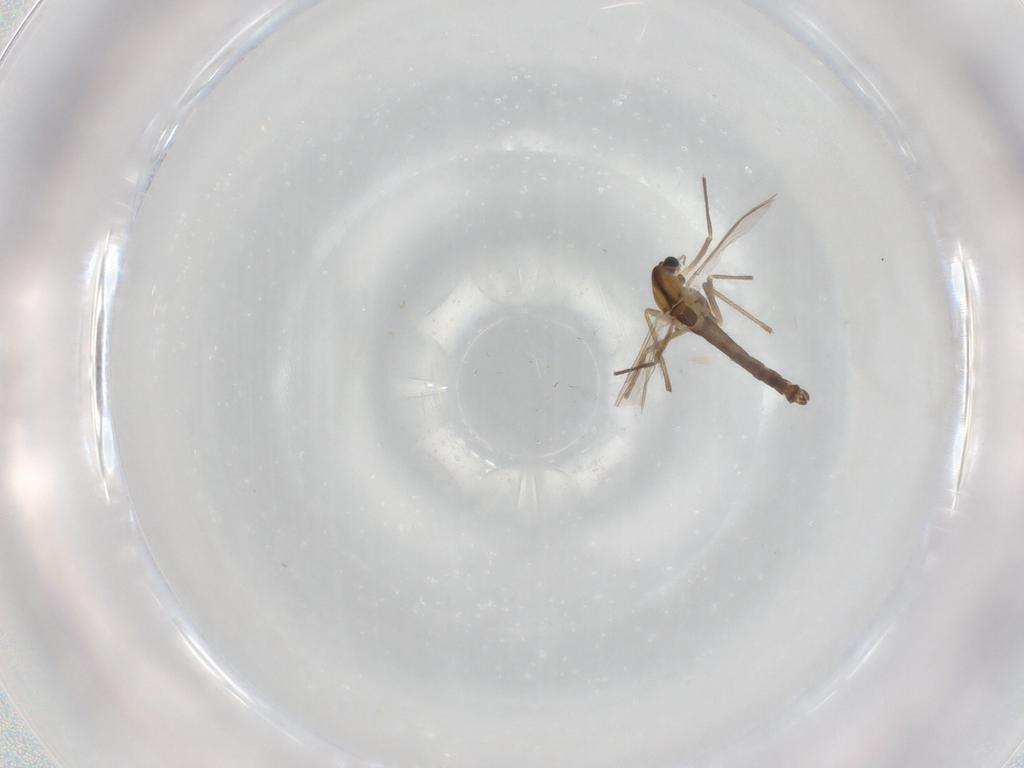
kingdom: Animalia
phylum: Arthropoda
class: Insecta
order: Diptera
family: Chironomidae
